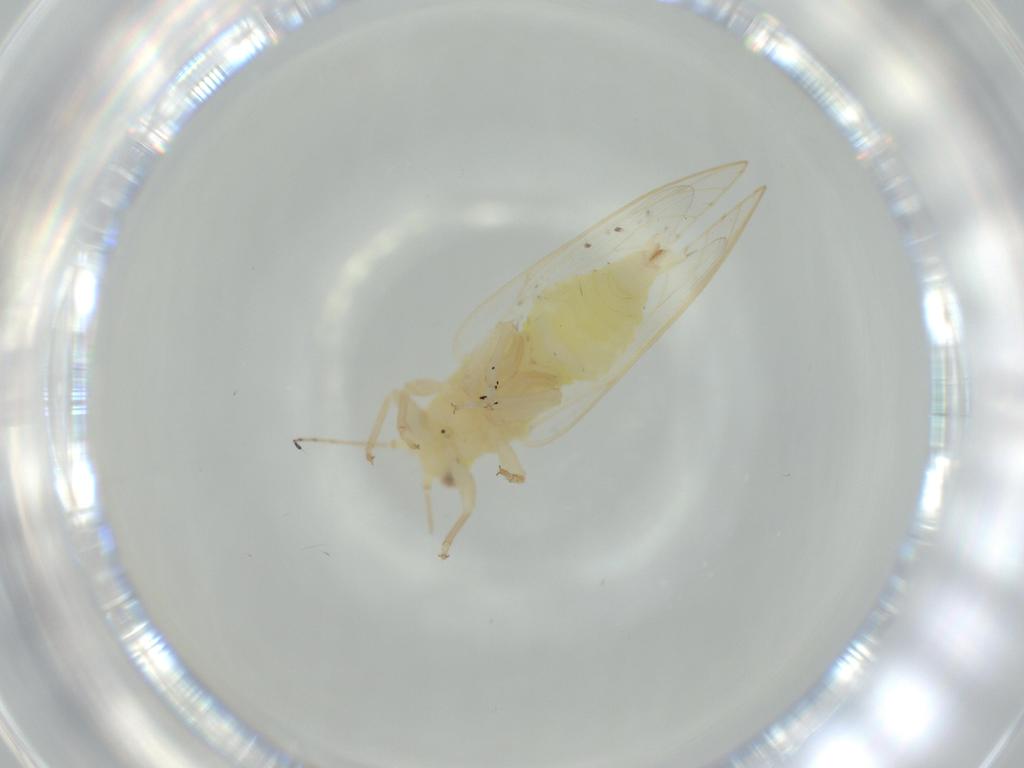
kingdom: Animalia
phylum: Arthropoda
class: Insecta
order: Hemiptera
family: Triozidae
